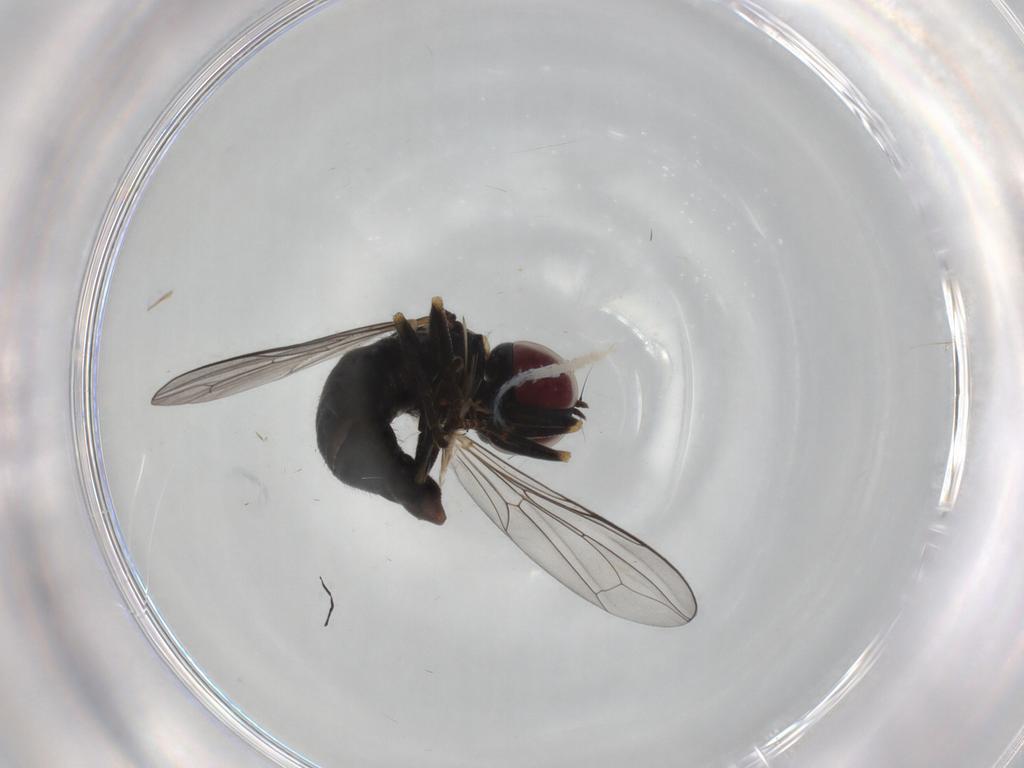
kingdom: Animalia
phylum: Arthropoda
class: Insecta
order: Diptera
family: Pipunculidae
